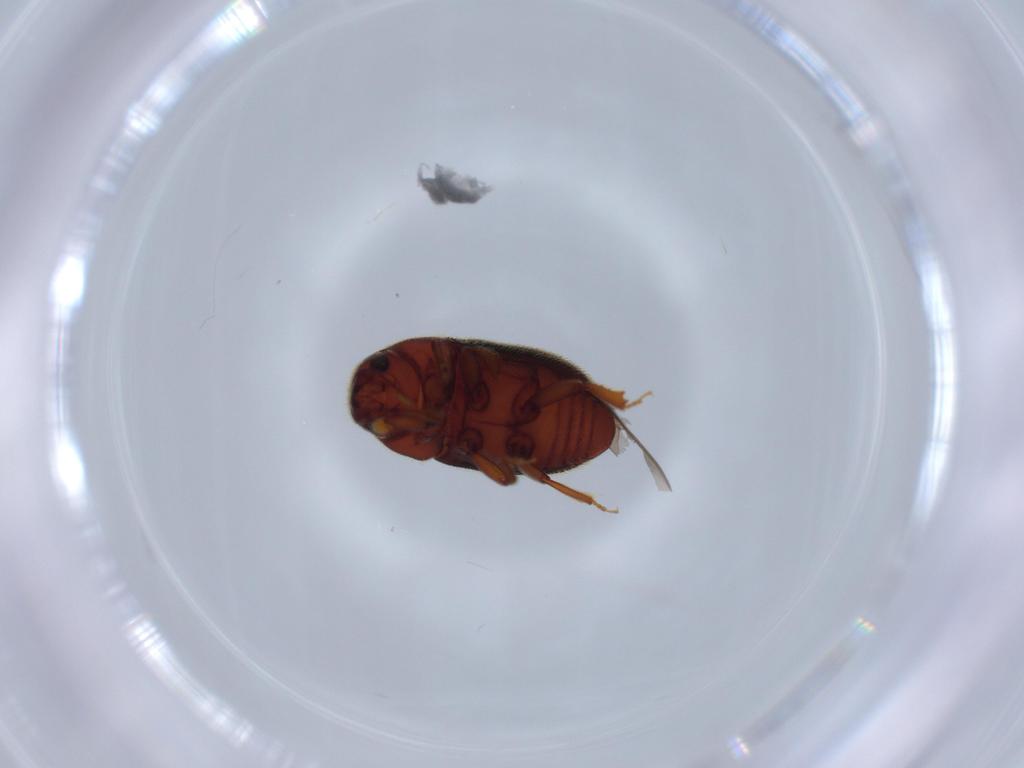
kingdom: Animalia
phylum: Arthropoda
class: Insecta
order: Coleoptera
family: Curculionidae
